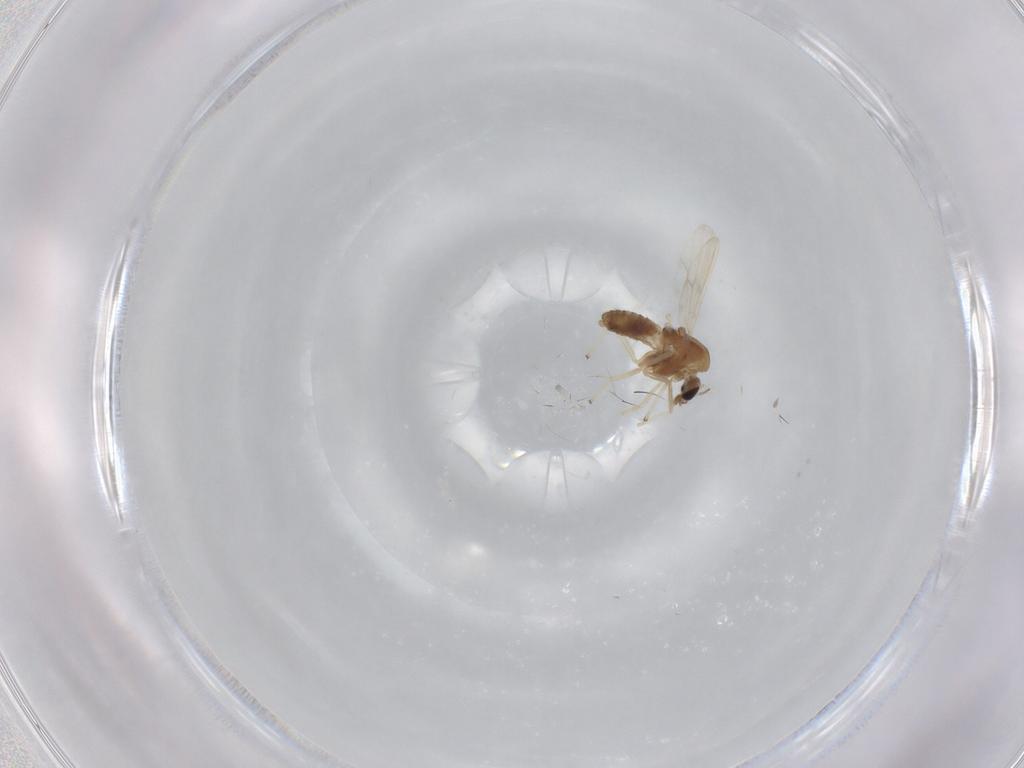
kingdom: Animalia
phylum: Arthropoda
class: Insecta
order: Diptera
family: Chironomidae
